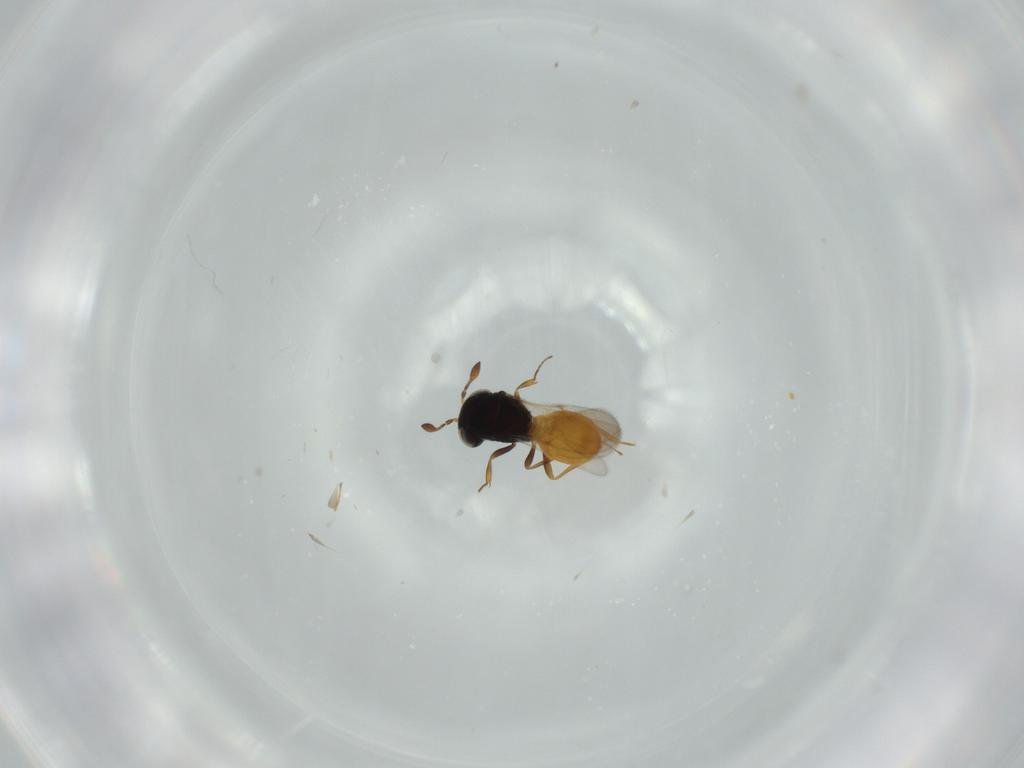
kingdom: Animalia
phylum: Arthropoda
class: Insecta
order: Hymenoptera
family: Scelionidae
